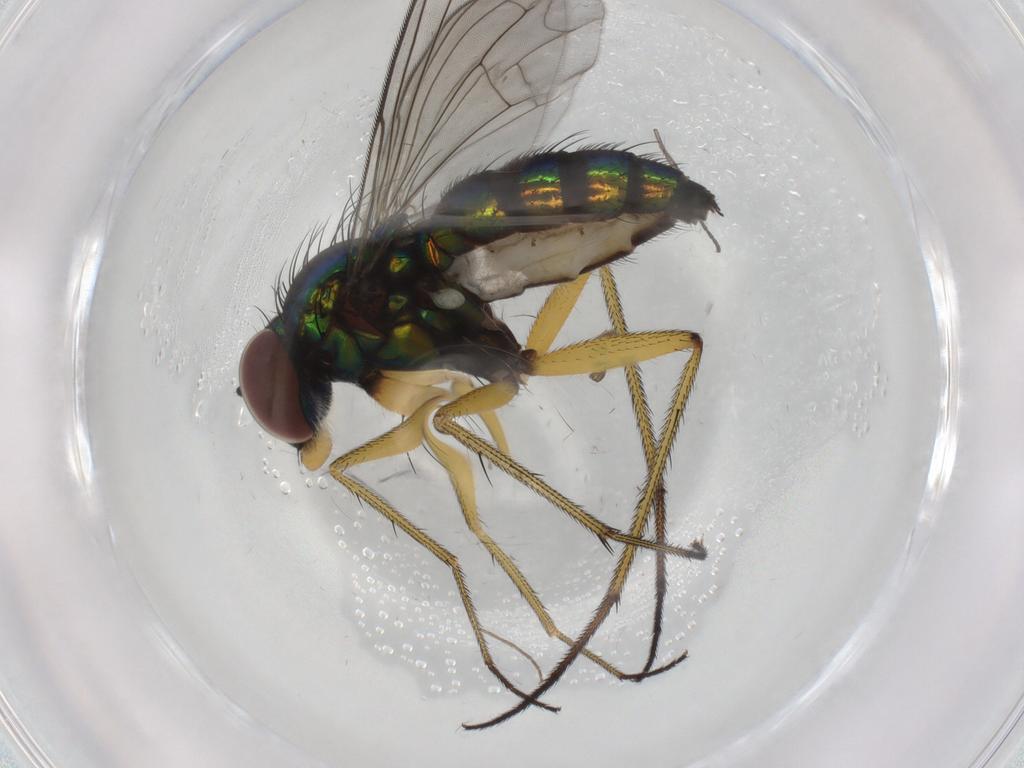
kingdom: Animalia
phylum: Arthropoda
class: Insecta
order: Diptera
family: Dolichopodidae
